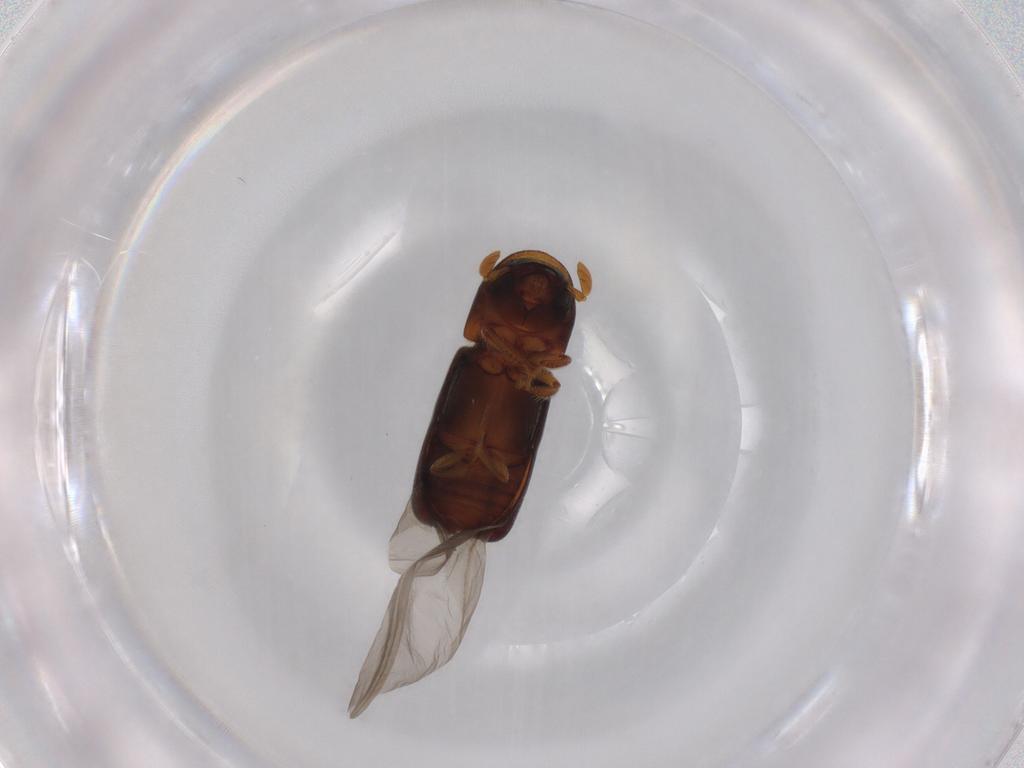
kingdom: Animalia
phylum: Arthropoda
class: Insecta
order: Coleoptera
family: Curculionidae
